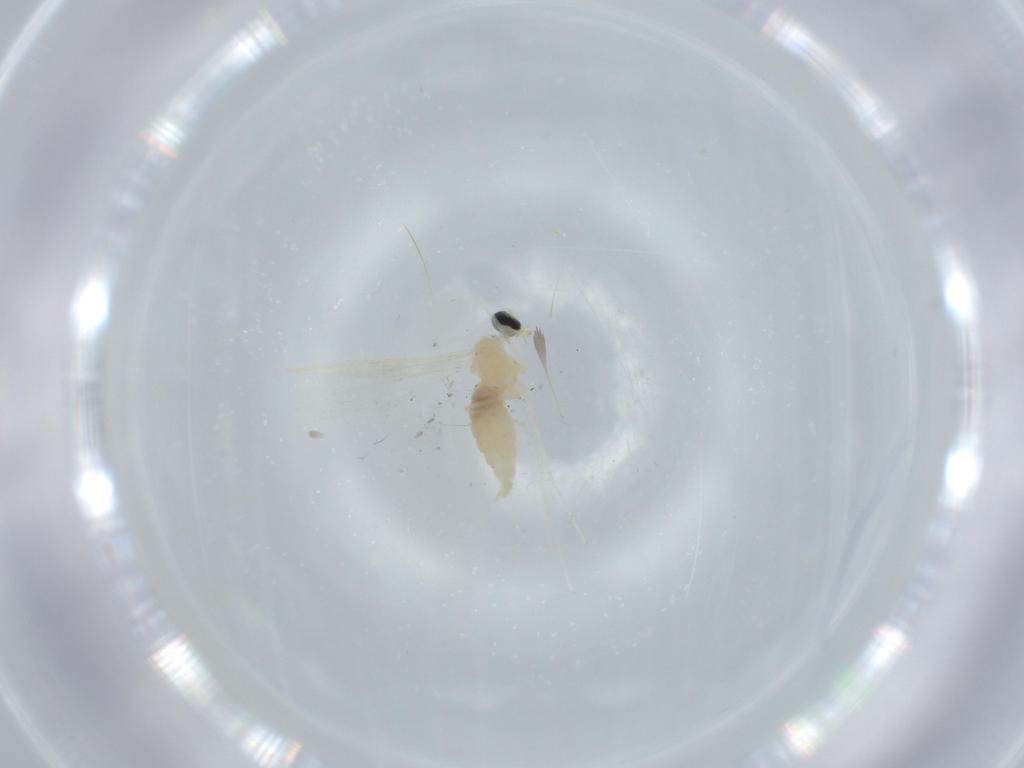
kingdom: Animalia
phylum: Arthropoda
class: Insecta
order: Diptera
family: Cecidomyiidae
